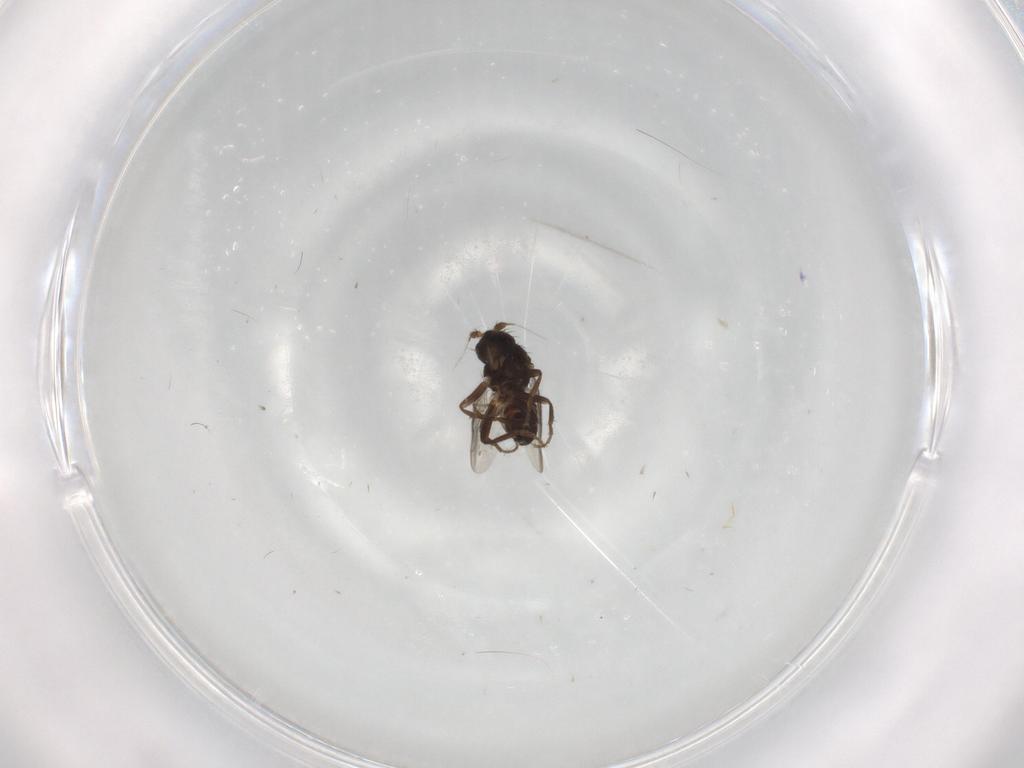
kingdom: Animalia
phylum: Arthropoda
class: Insecta
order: Diptera
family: Sphaeroceridae
